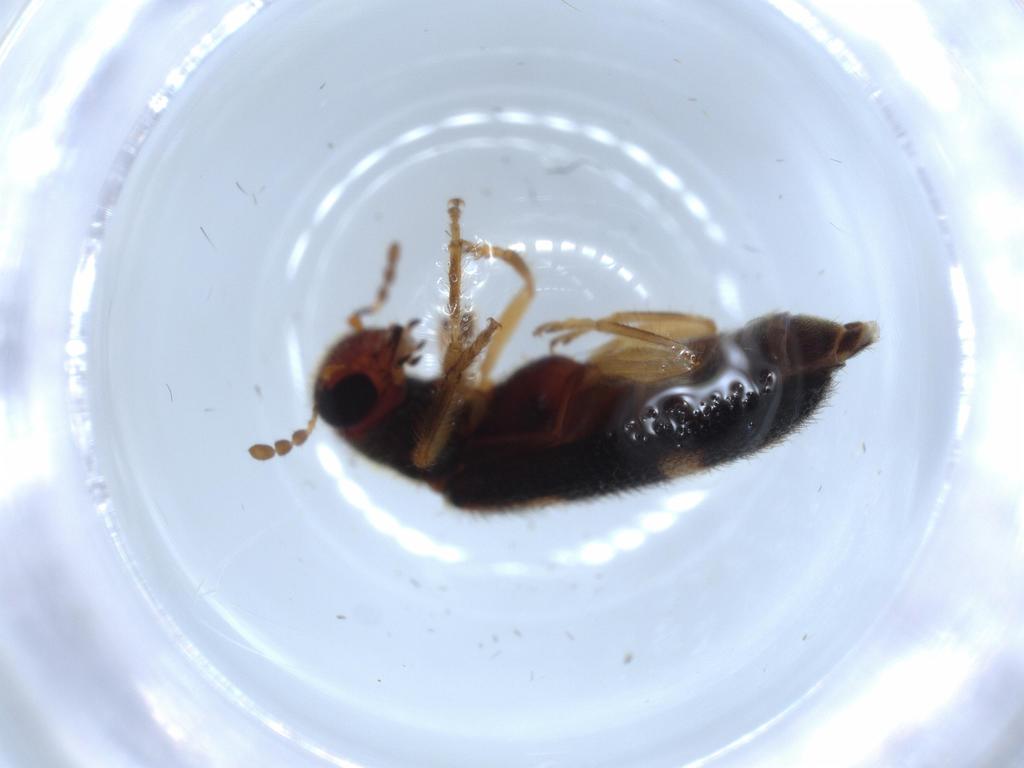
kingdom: Animalia
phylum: Arthropoda
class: Insecta
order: Coleoptera
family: Cleridae
